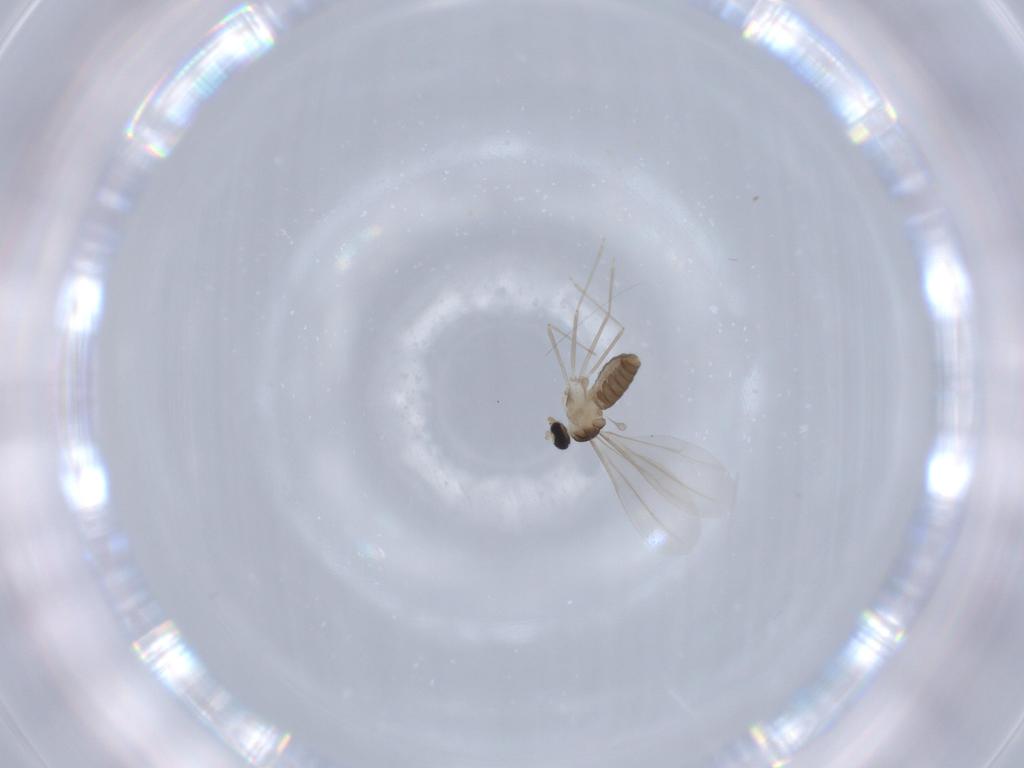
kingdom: Animalia
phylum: Arthropoda
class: Insecta
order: Diptera
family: Cecidomyiidae
